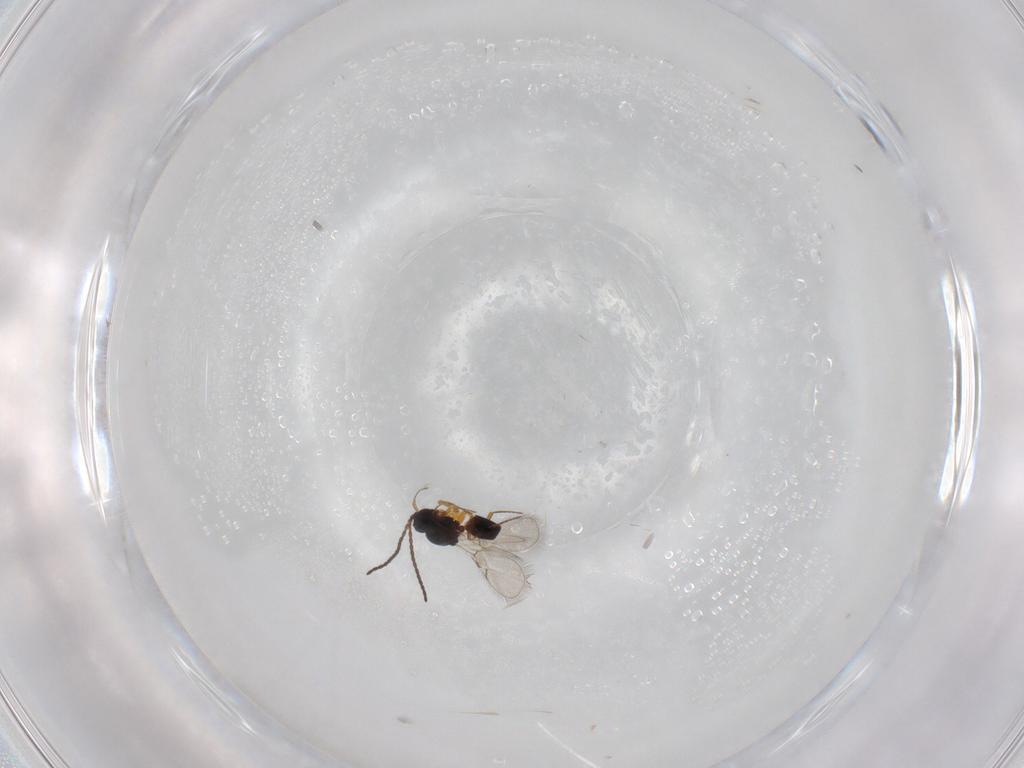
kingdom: Animalia
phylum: Arthropoda
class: Insecta
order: Hymenoptera
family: Figitidae
